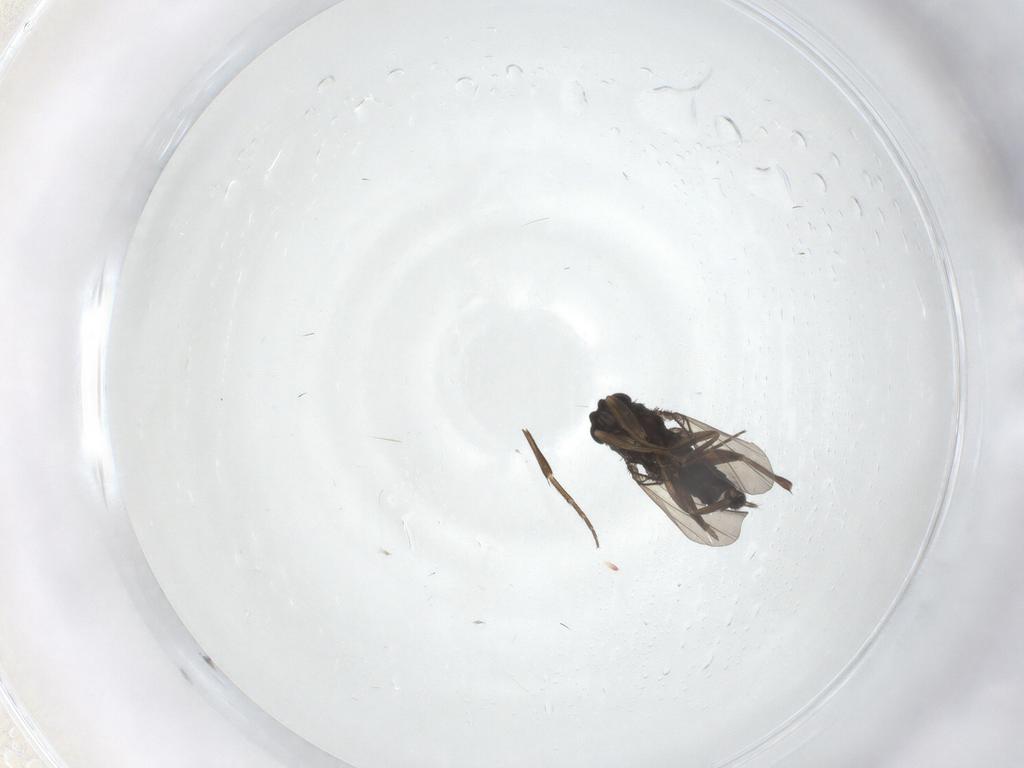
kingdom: Animalia
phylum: Arthropoda
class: Insecta
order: Diptera
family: Phoridae
